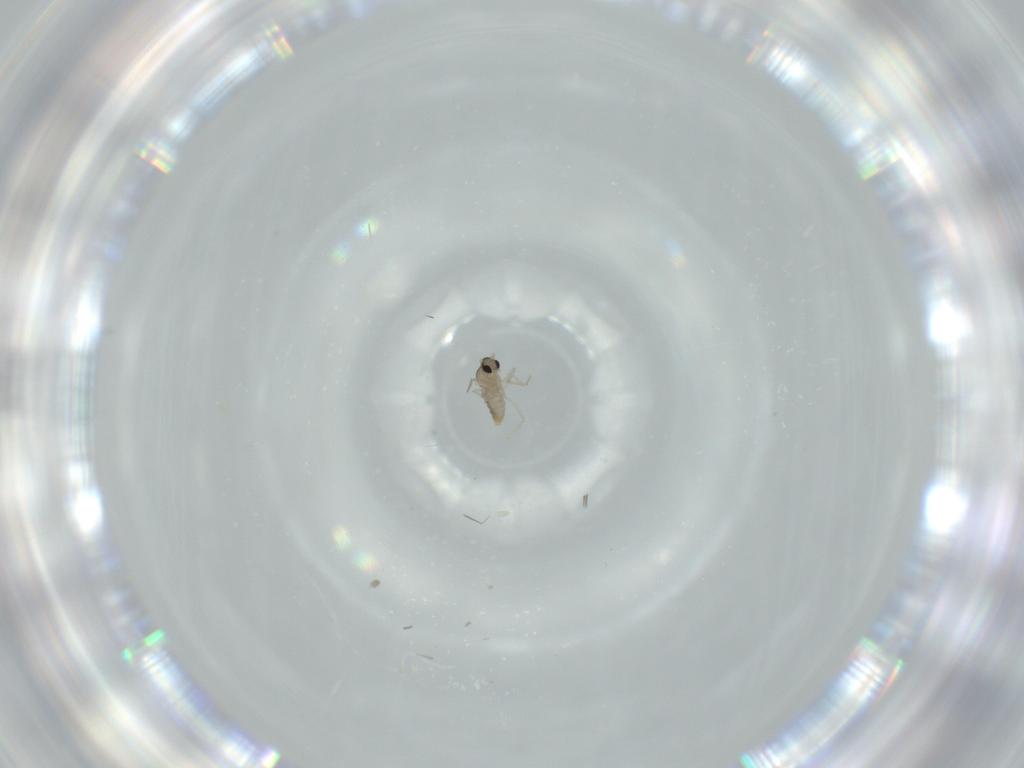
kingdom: Animalia
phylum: Arthropoda
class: Insecta
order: Diptera
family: Cecidomyiidae
